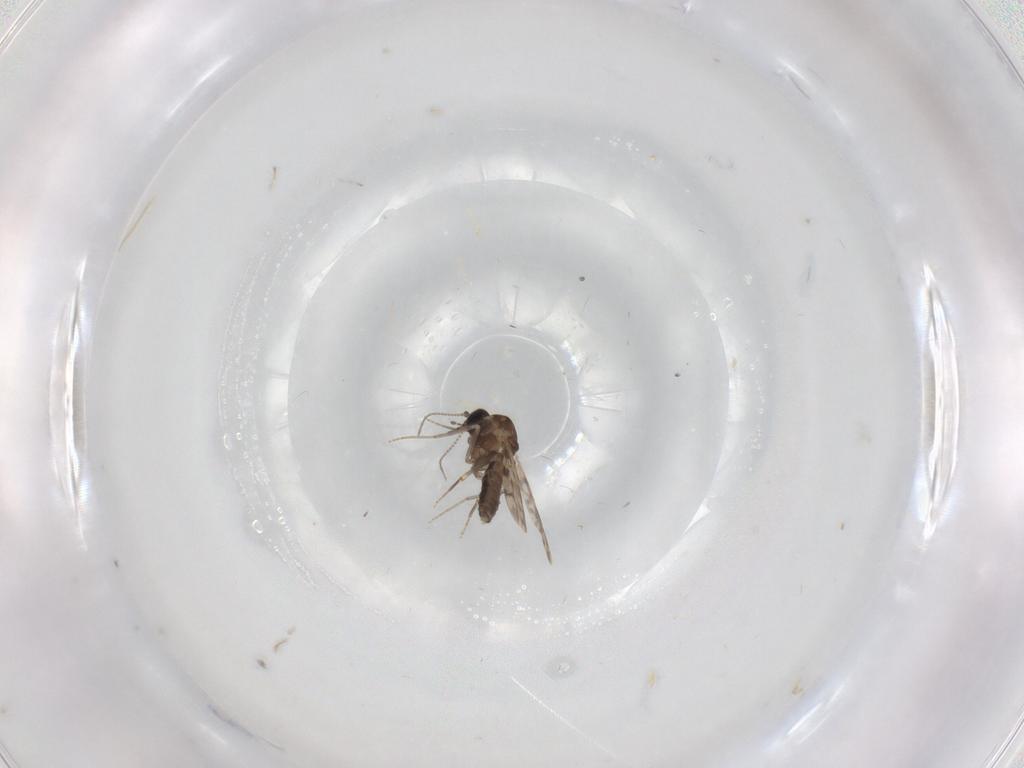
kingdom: Animalia
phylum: Arthropoda
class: Insecta
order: Diptera
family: Ceratopogonidae
